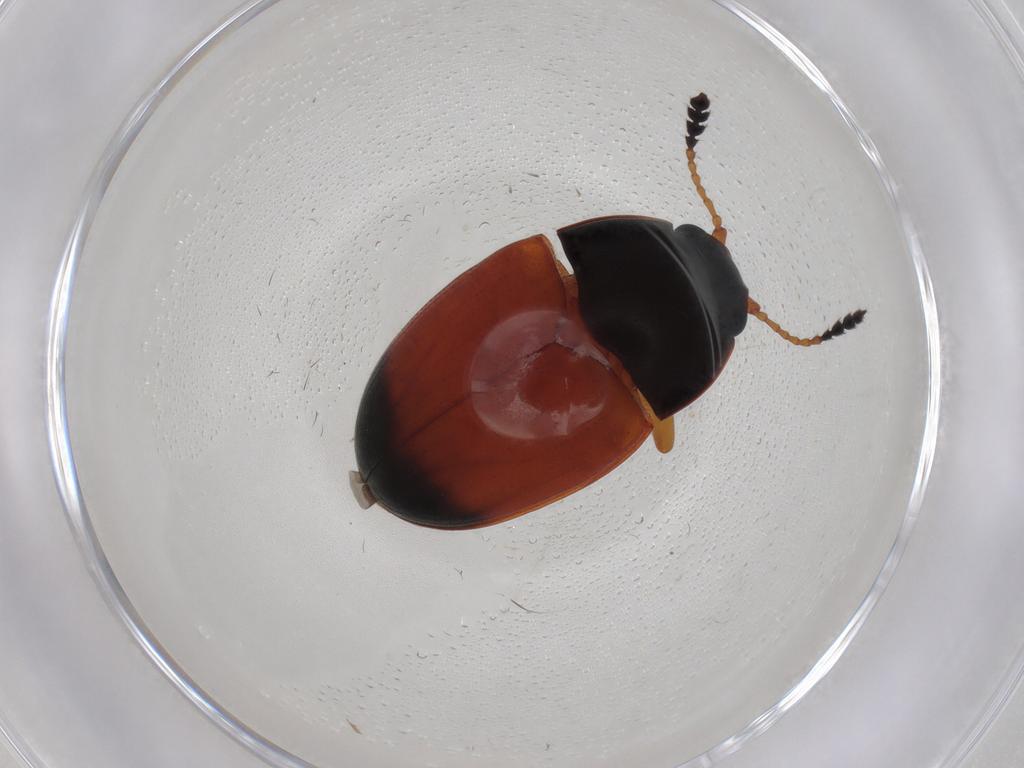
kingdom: Animalia
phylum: Arthropoda
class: Insecta
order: Coleoptera
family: Erotylidae
